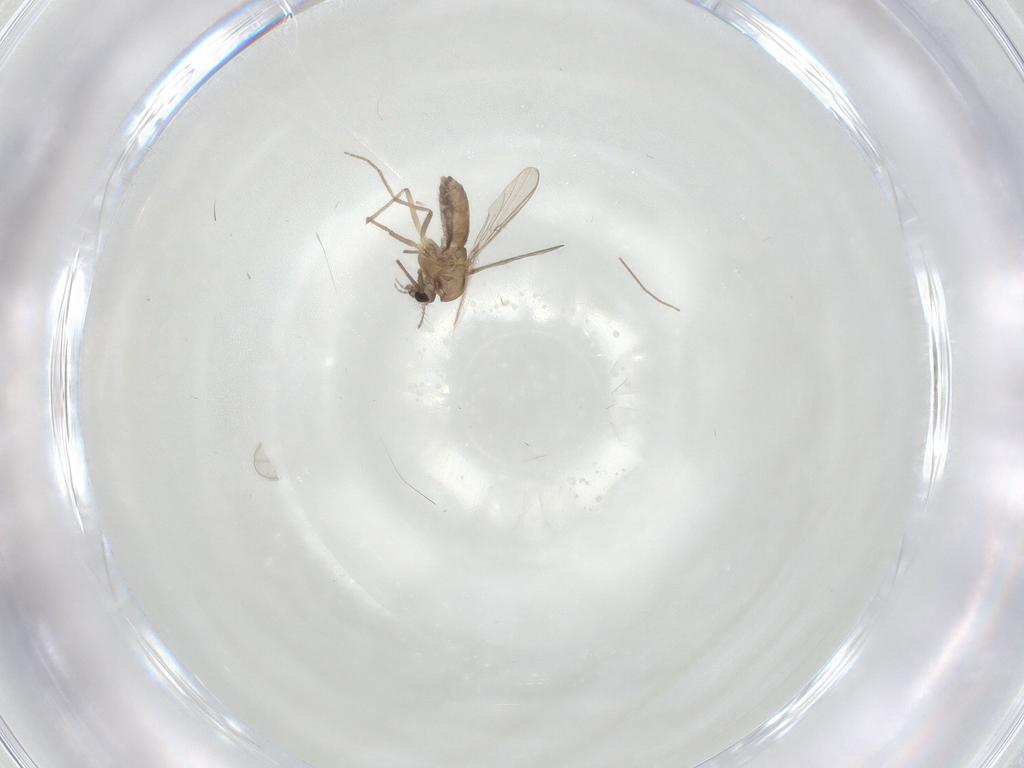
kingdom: Animalia
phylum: Arthropoda
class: Insecta
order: Diptera
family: Chironomidae
